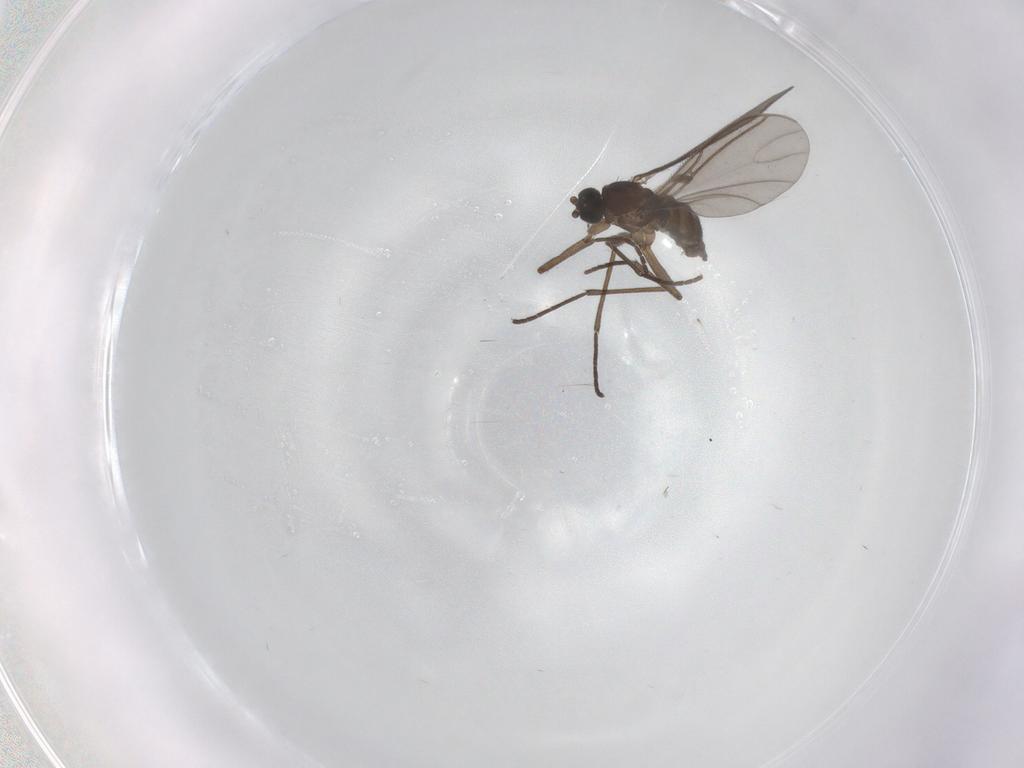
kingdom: Animalia
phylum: Arthropoda
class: Insecta
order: Diptera
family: Sciaridae
